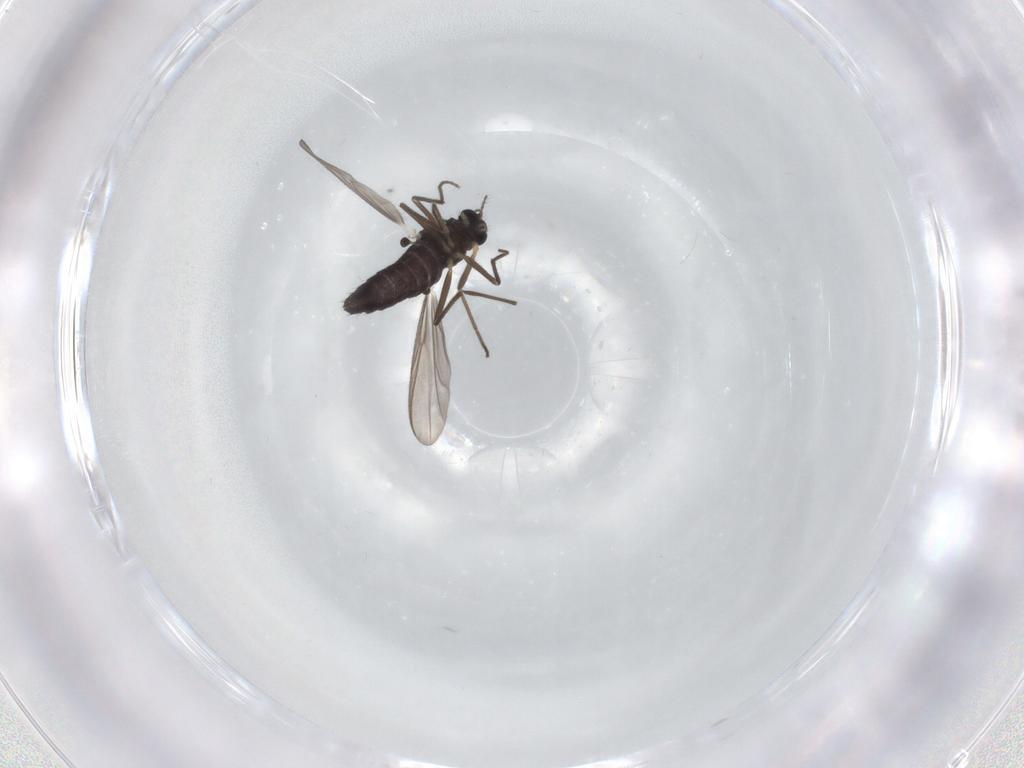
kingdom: Animalia
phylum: Arthropoda
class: Insecta
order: Diptera
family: Chironomidae
